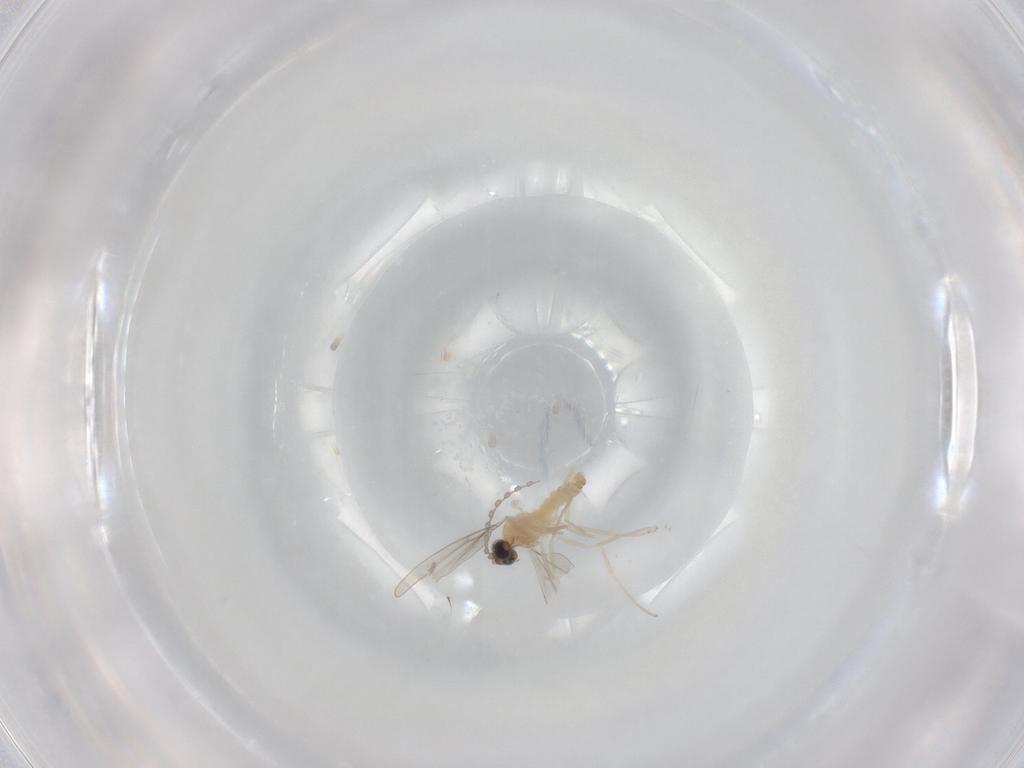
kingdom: Animalia
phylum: Arthropoda
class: Insecta
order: Diptera
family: Cecidomyiidae
